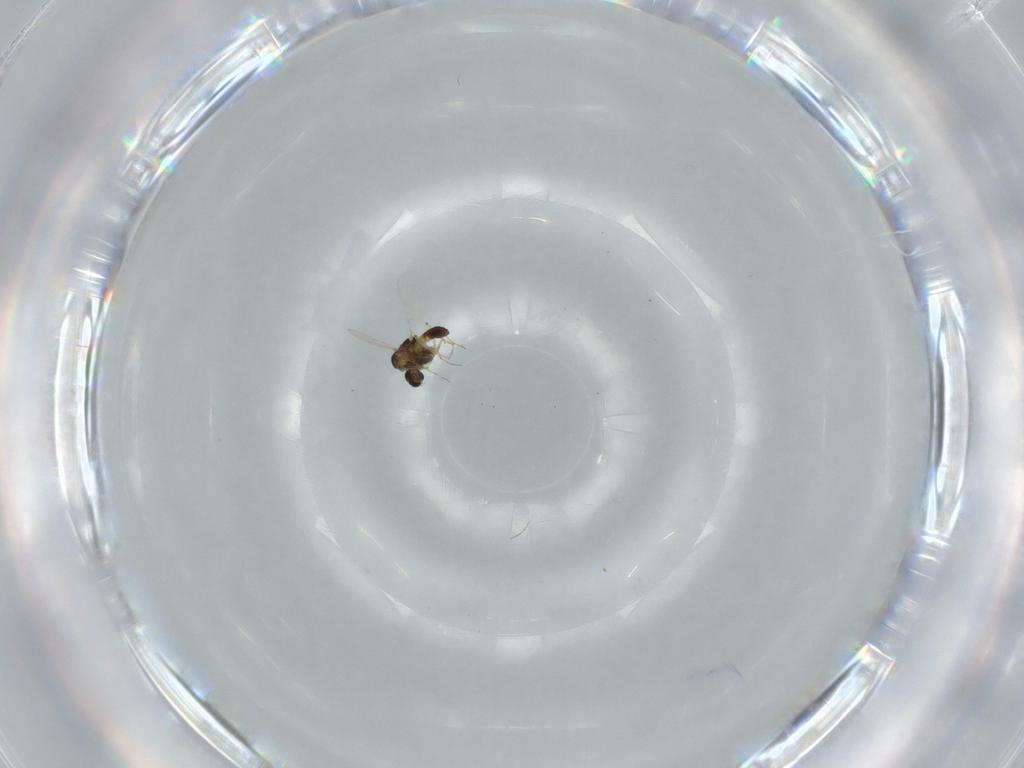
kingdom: Animalia
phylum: Arthropoda
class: Insecta
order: Diptera
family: Chironomidae
